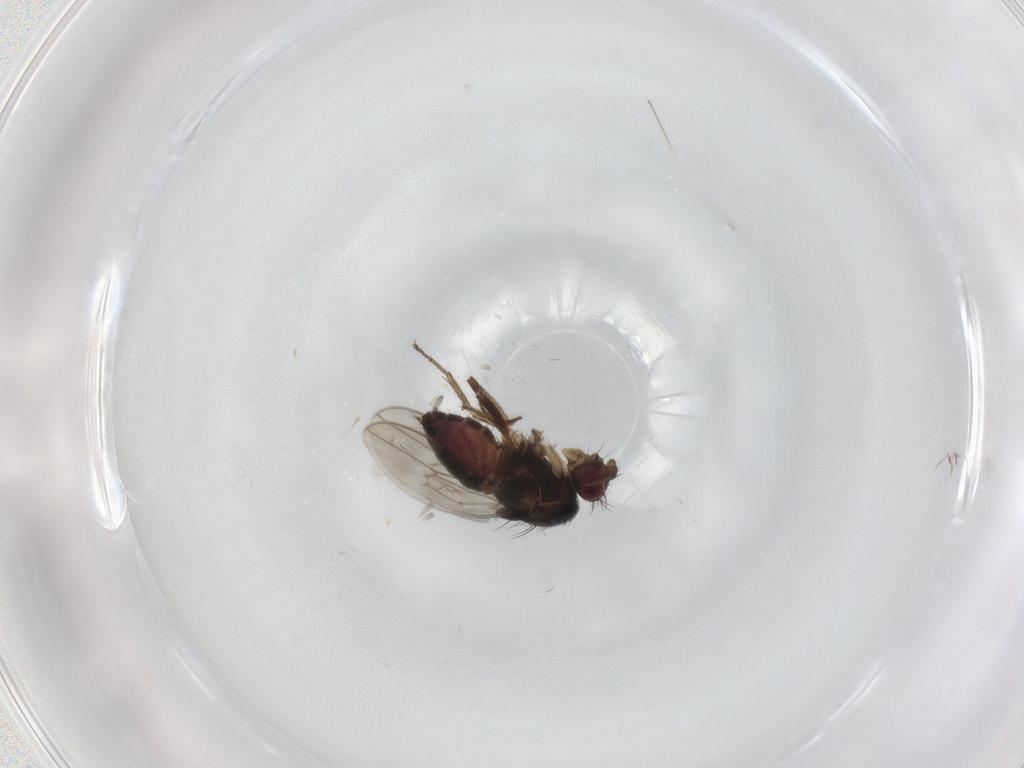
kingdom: Animalia
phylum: Arthropoda
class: Insecta
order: Diptera
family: Sphaeroceridae
